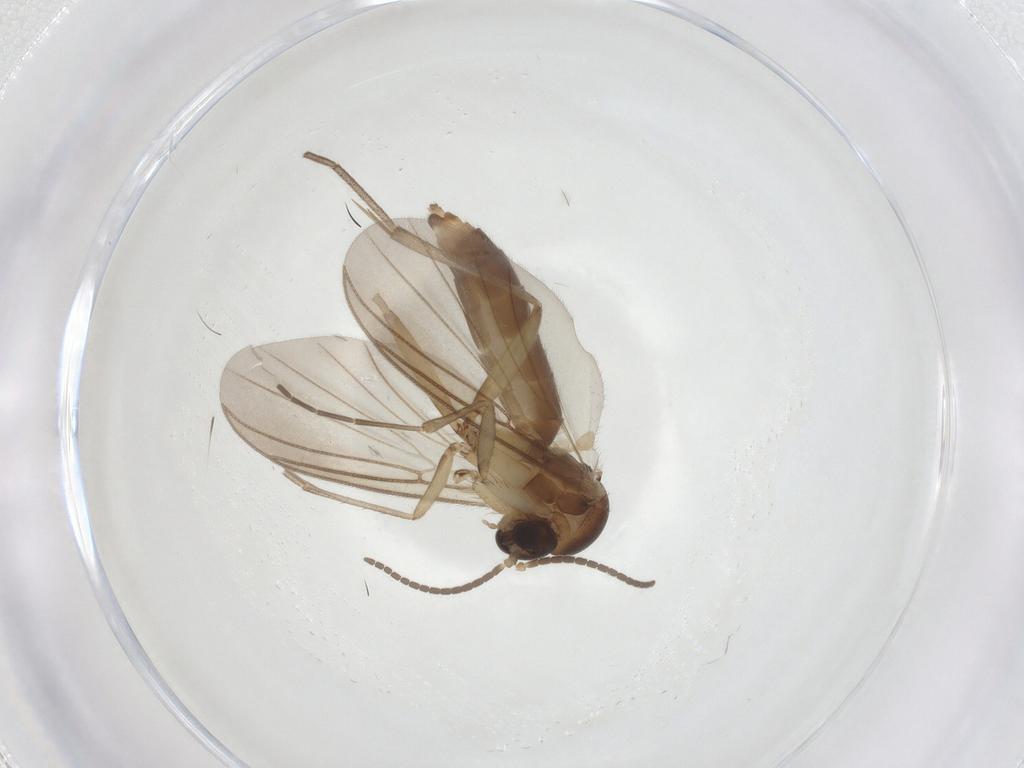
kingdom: Animalia
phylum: Arthropoda
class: Insecta
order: Diptera
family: Mycetophilidae
